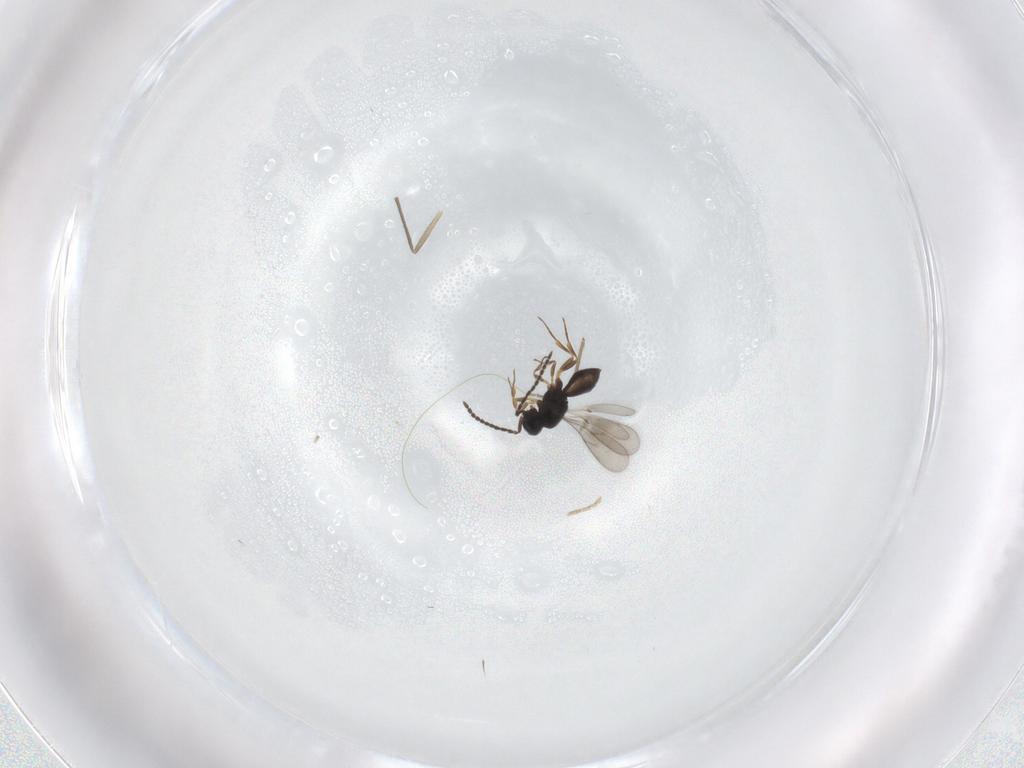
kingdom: Animalia
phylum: Arthropoda
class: Insecta
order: Hymenoptera
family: Scelionidae
